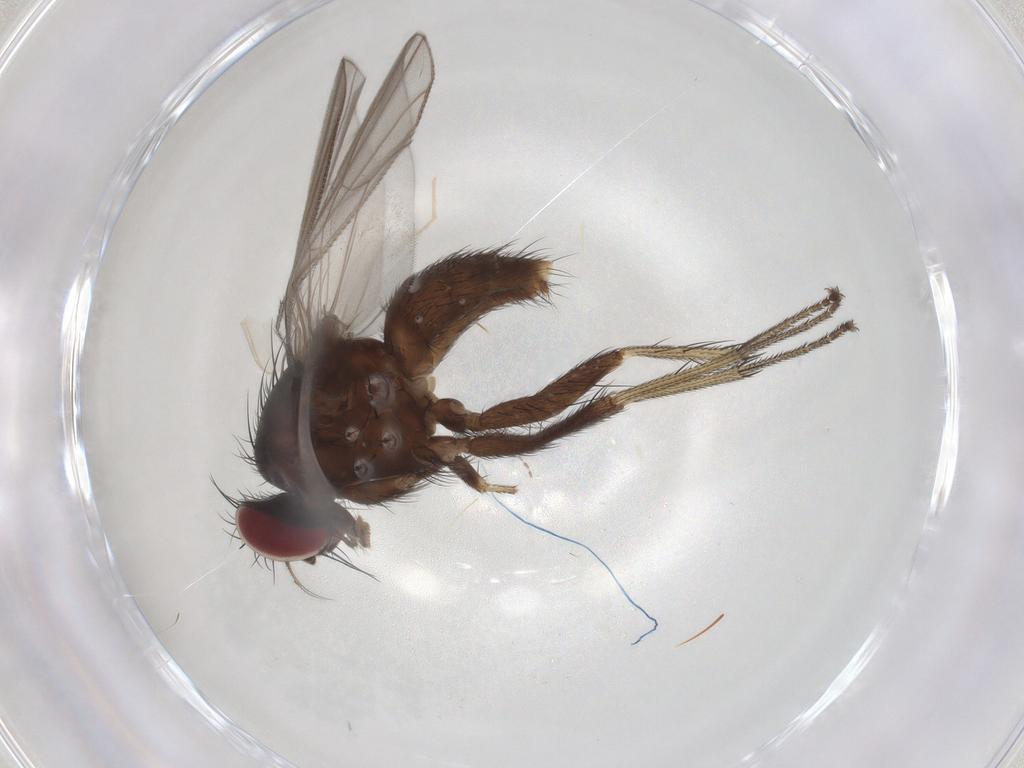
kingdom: Animalia
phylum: Arthropoda
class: Insecta
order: Diptera
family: Muscidae
